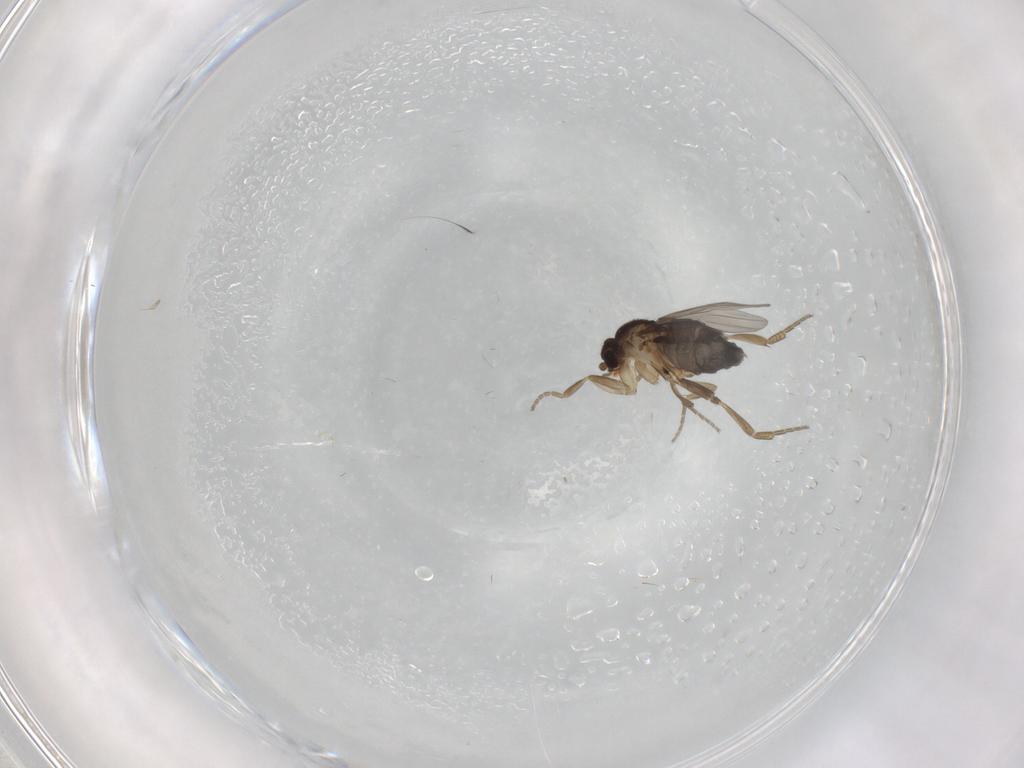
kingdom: Animalia
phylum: Arthropoda
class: Insecta
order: Diptera
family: Phoridae
